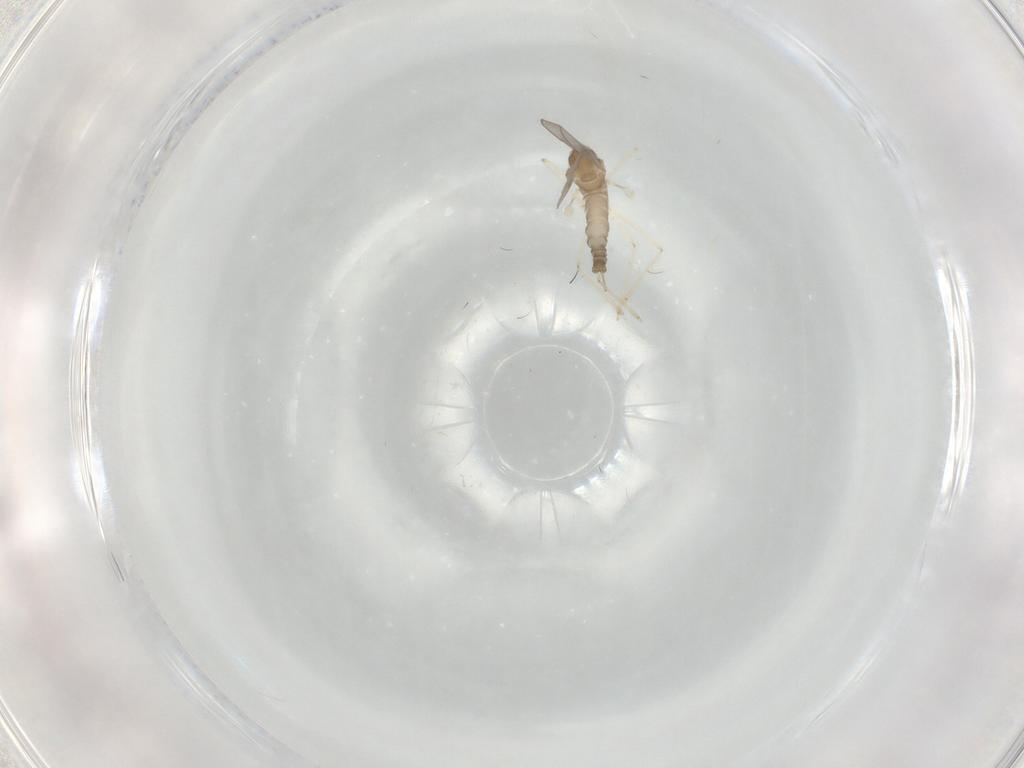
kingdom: Animalia
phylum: Arthropoda
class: Insecta
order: Diptera
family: Cecidomyiidae
